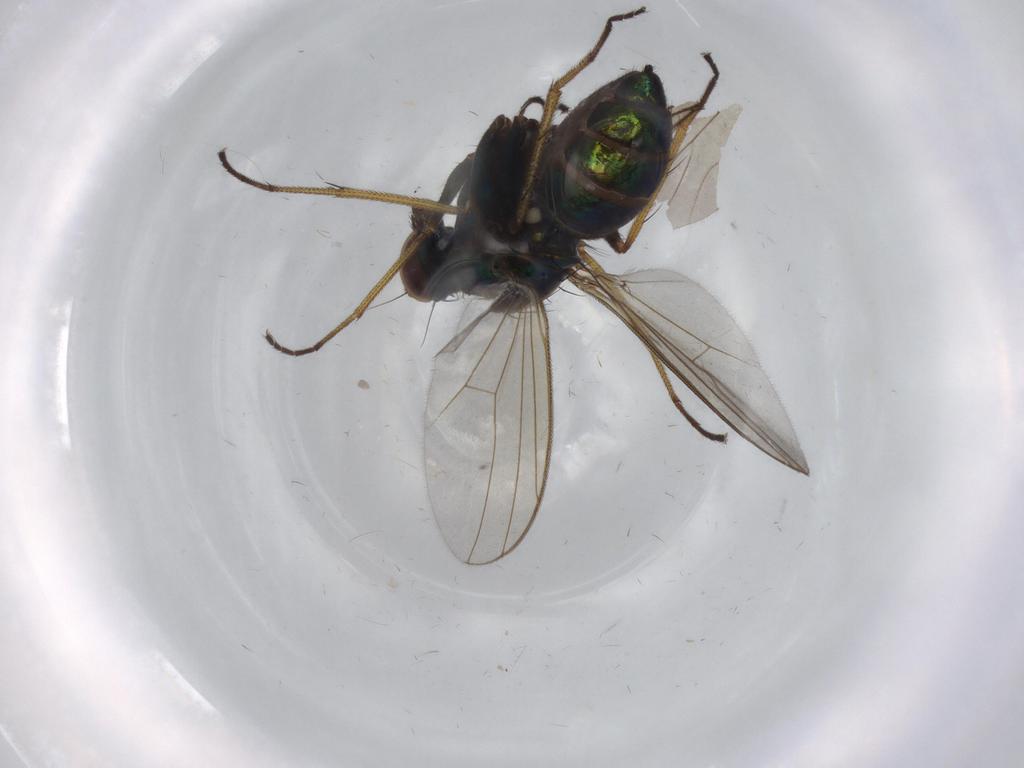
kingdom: Animalia
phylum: Arthropoda
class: Insecta
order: Diptera
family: Dolichopodidae
